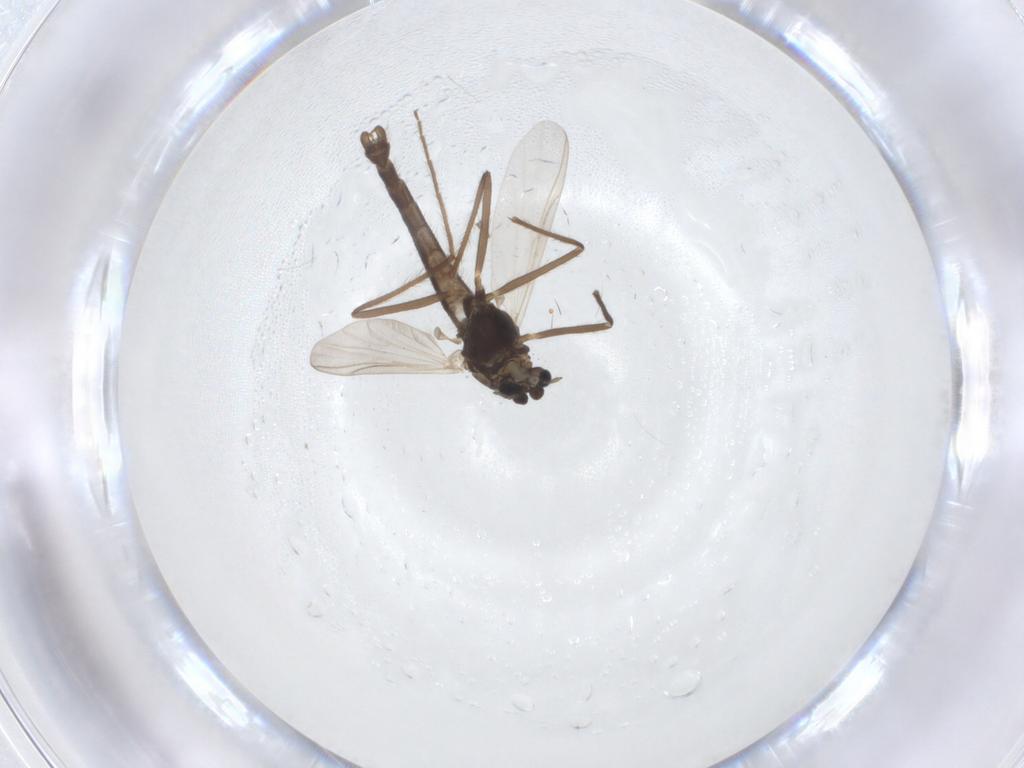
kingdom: Animalia
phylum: Arthropoda
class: Insecta
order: Diptera
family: Chironomidae
